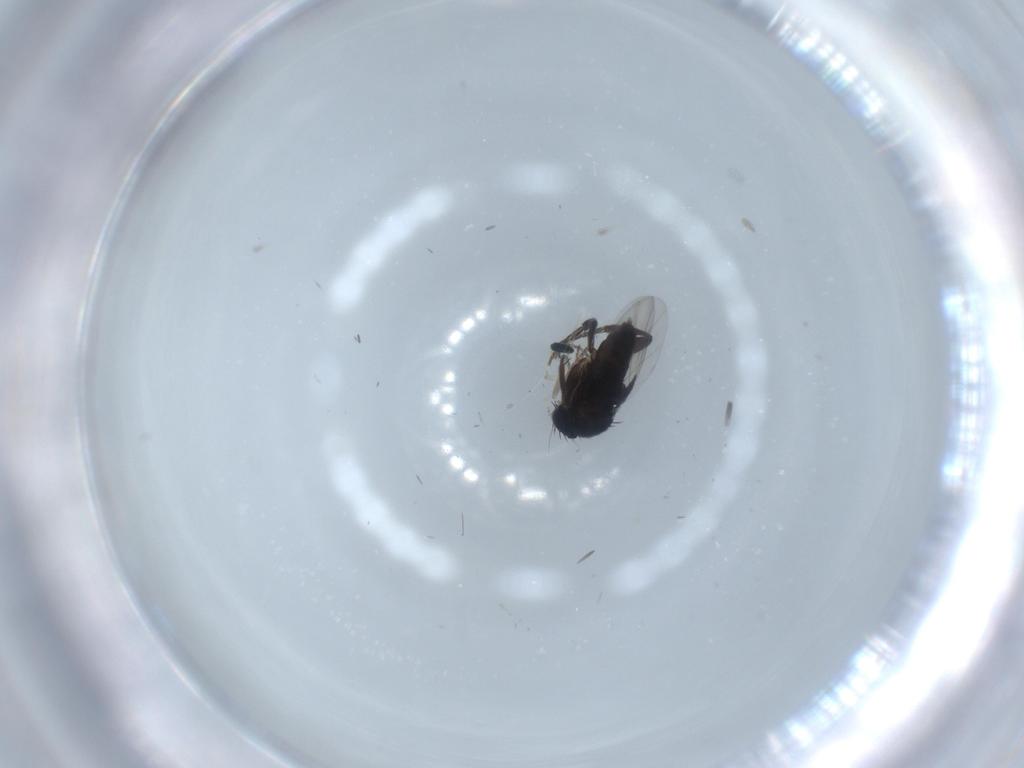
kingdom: Animalia
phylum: Arthropoda
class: Insecta
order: Diptera
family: Phoridae
